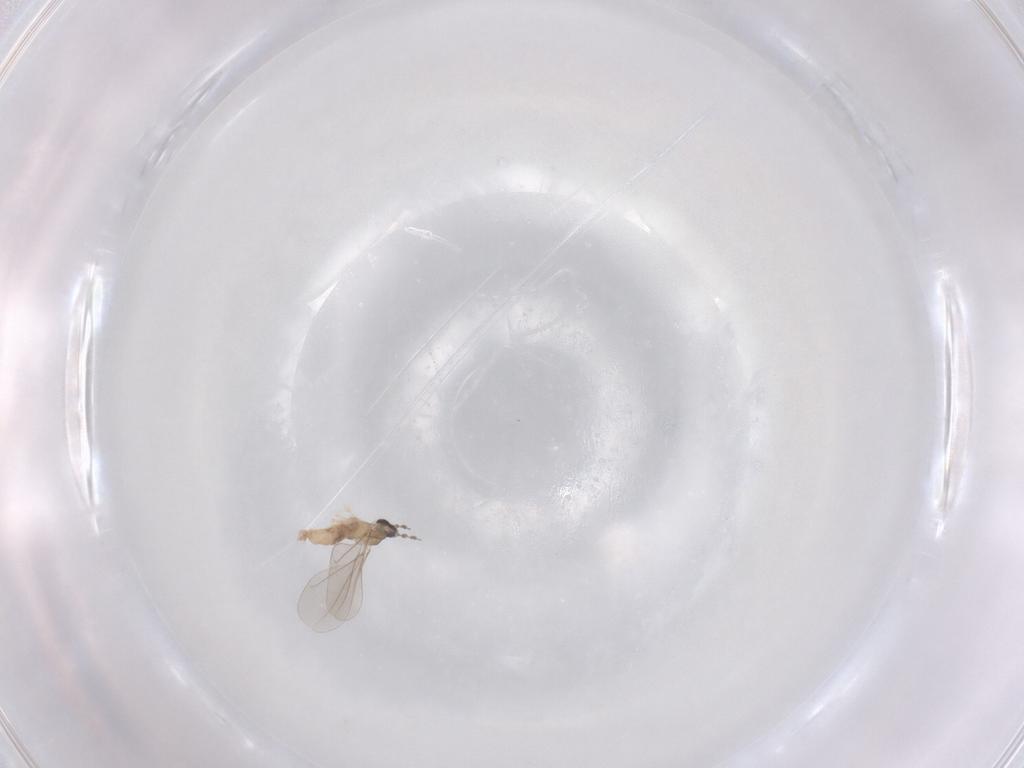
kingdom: Animalia
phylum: Arthropoda
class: Insecta
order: Diptera
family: Cecidomyiidae
